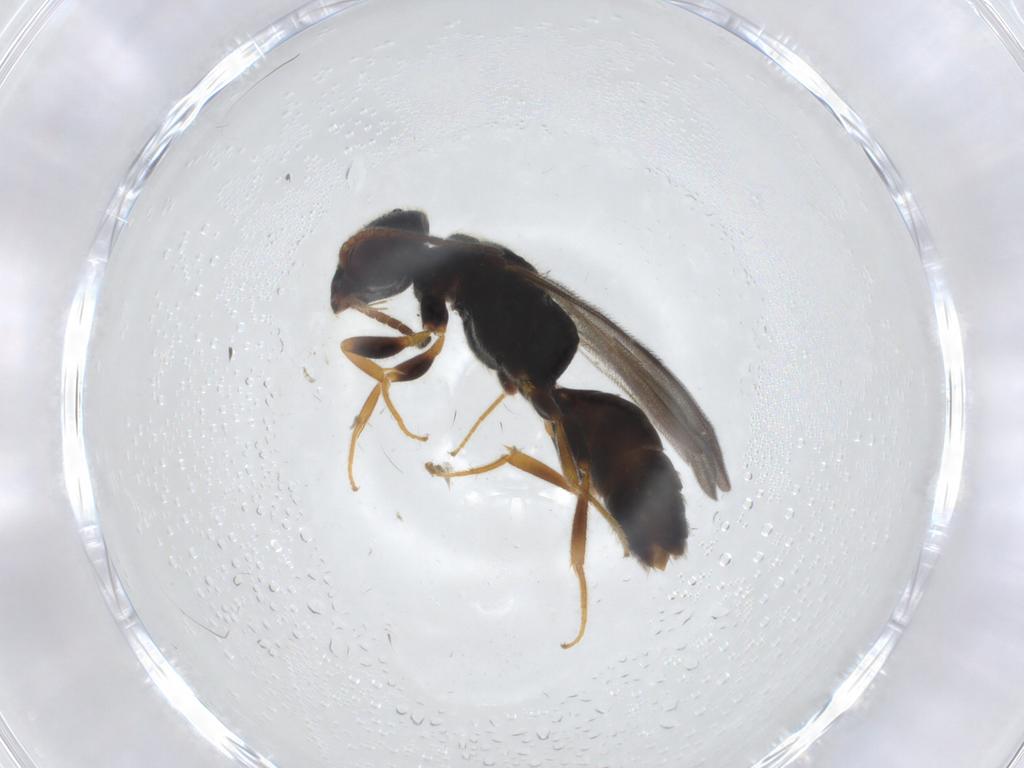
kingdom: Animalia
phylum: Arthropoda
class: Insecta
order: Hymenoptera
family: Bethylidae
